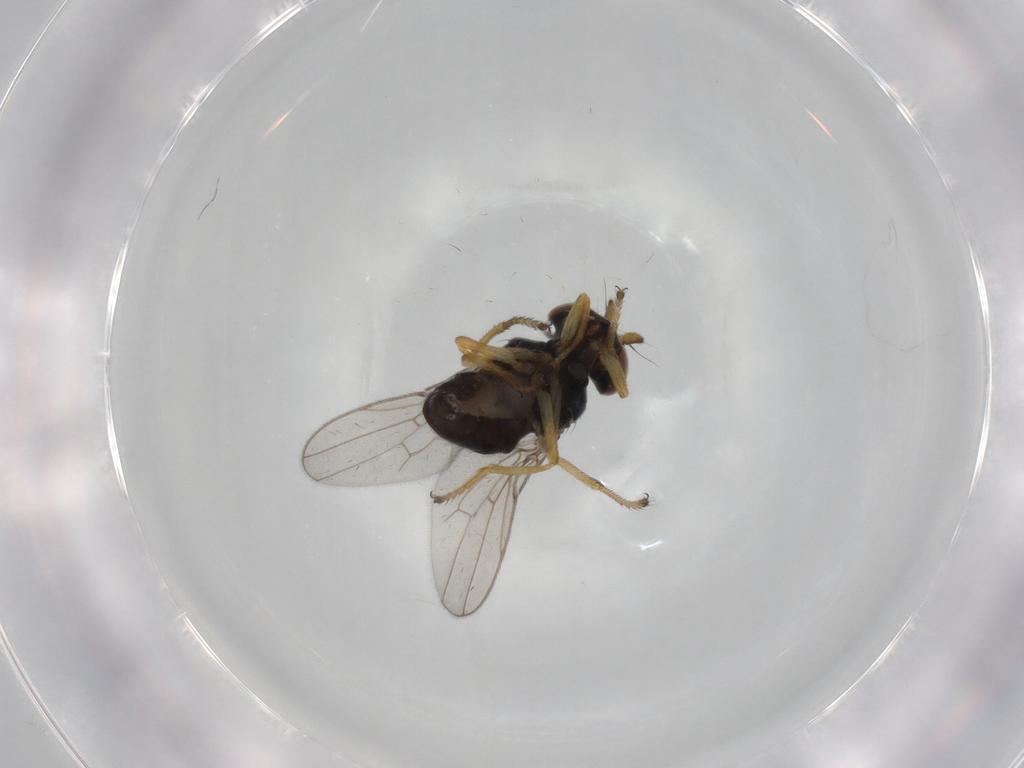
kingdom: Animalia
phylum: Arthropoda
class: Insecta
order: Diptera
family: Ephydridae
